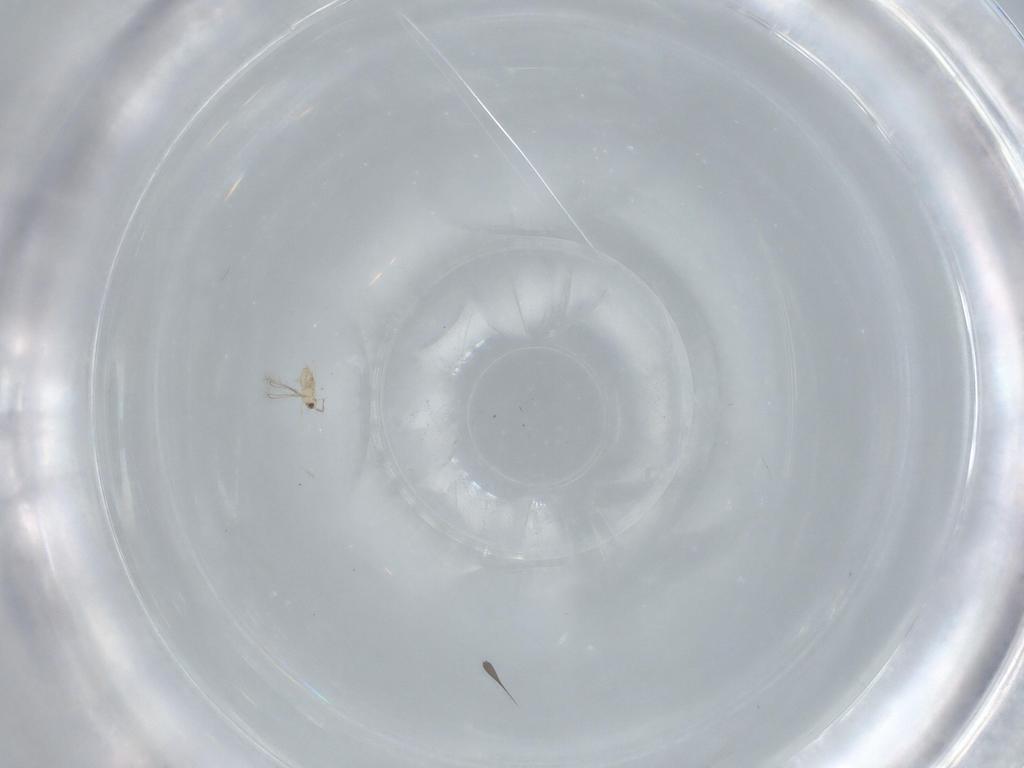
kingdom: Animalia
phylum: Arthropoda
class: Insecta
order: Hymenoptera
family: Mymaridae
